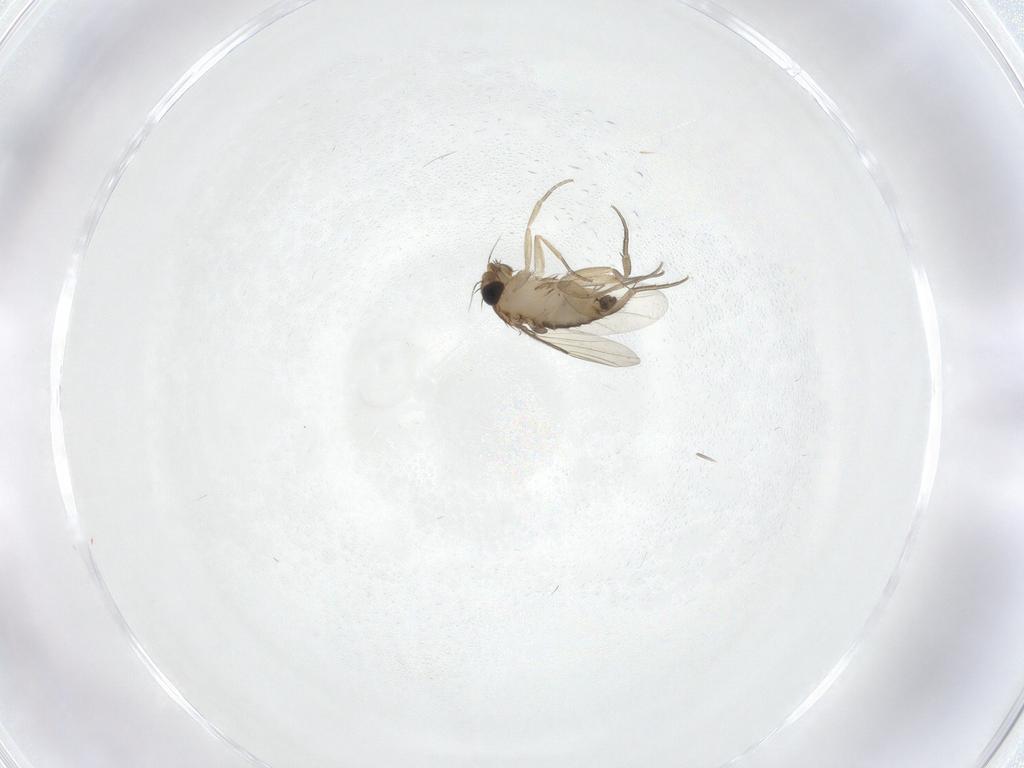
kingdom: Animalia
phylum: Arthropoda
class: Insecta
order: Diptera
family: Phoridae
